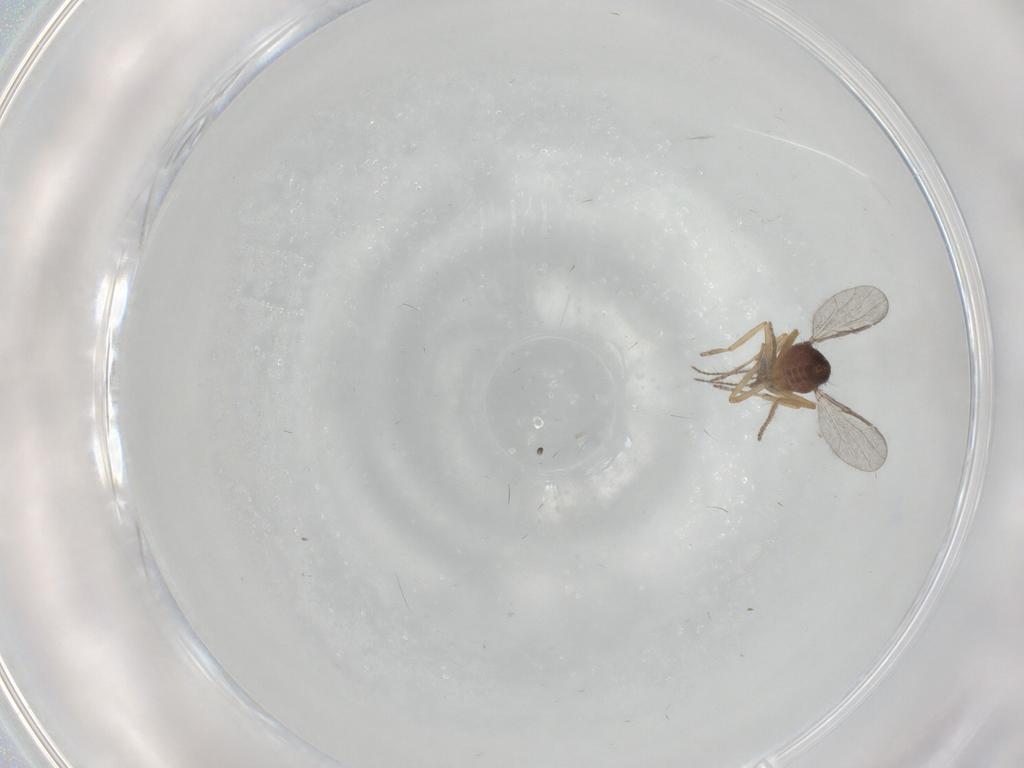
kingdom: Animalia
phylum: Arthropoda
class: Insecta
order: Diptera
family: Ceratopogonidae
